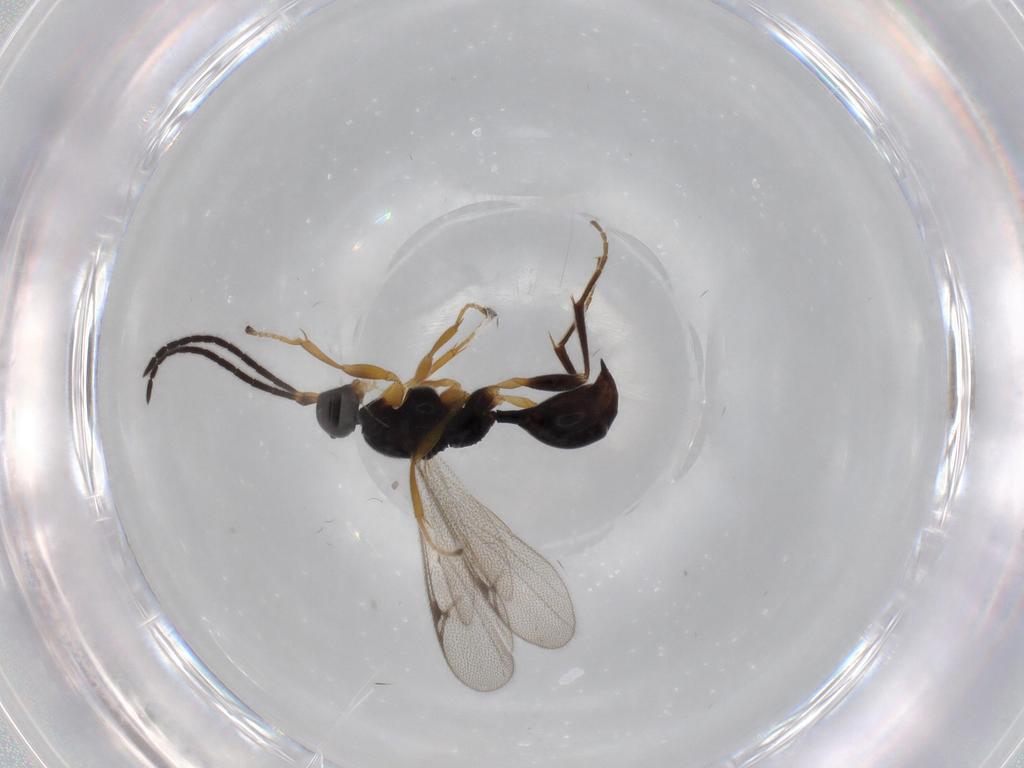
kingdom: Animalia
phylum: Arthropoda
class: Insecta
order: Hymenoptera
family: Proctotrupidae
